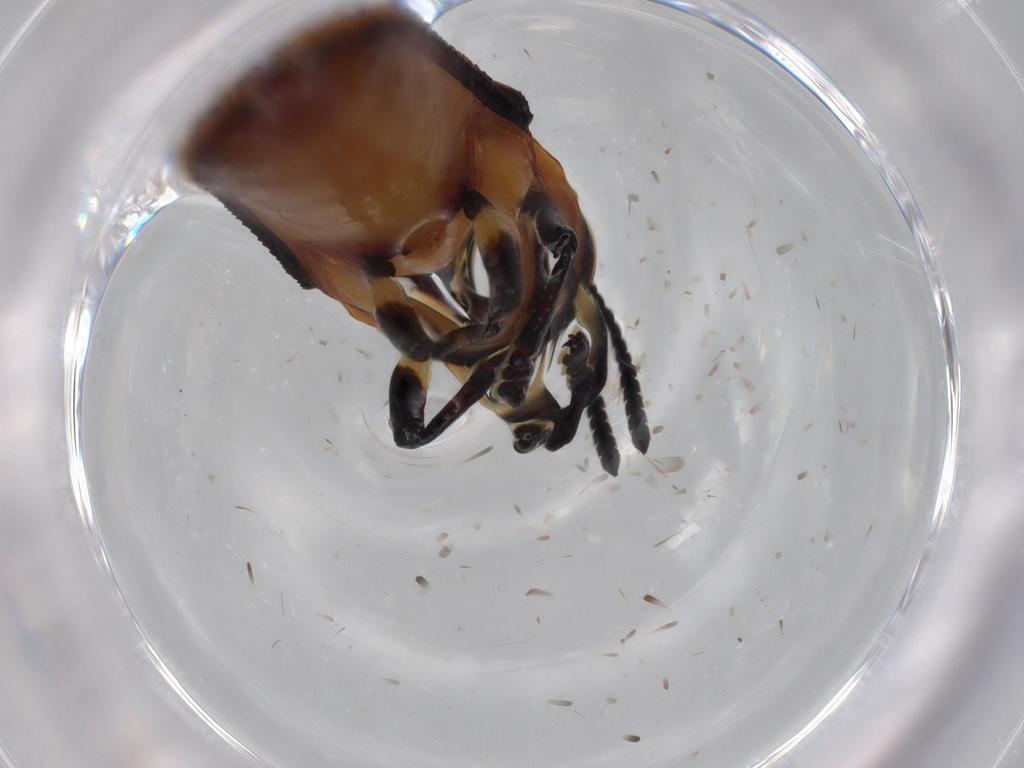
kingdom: Animalia
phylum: Arthropoda
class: Insecta
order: Coleoptera
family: Chrysomelidae
